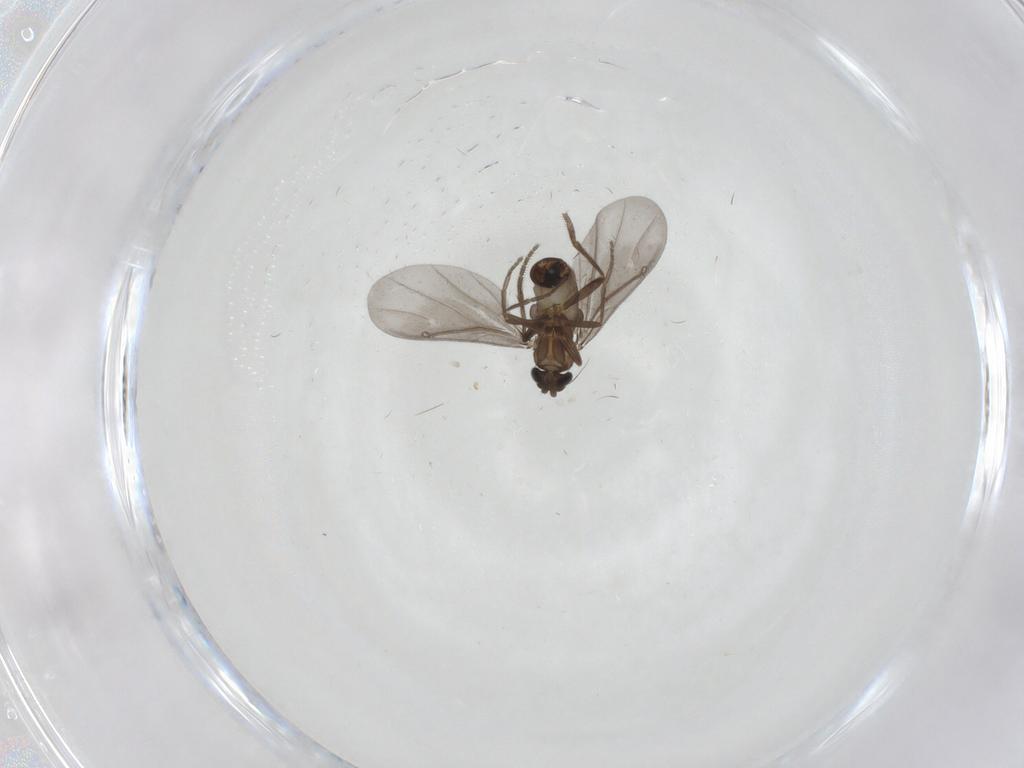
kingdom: Animalia
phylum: Arthropoda
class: Insecta
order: Diptera
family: Phoridae
